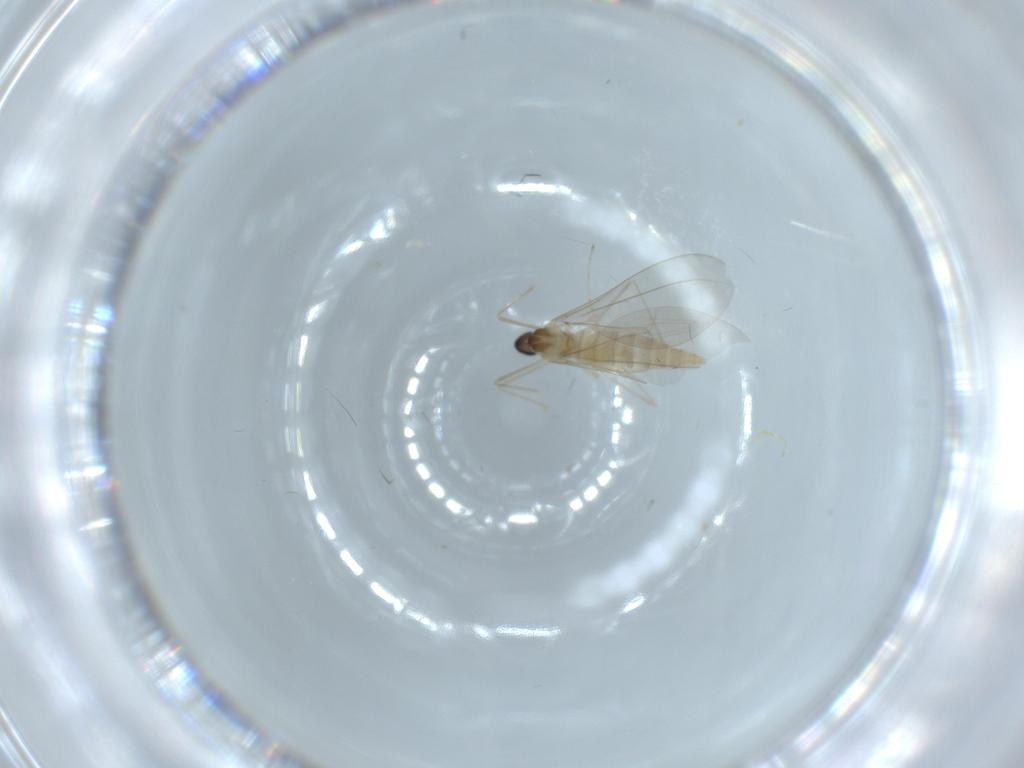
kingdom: Animalia
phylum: Arthropoda
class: Insecta
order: Diptera
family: Cecidomyiidae
